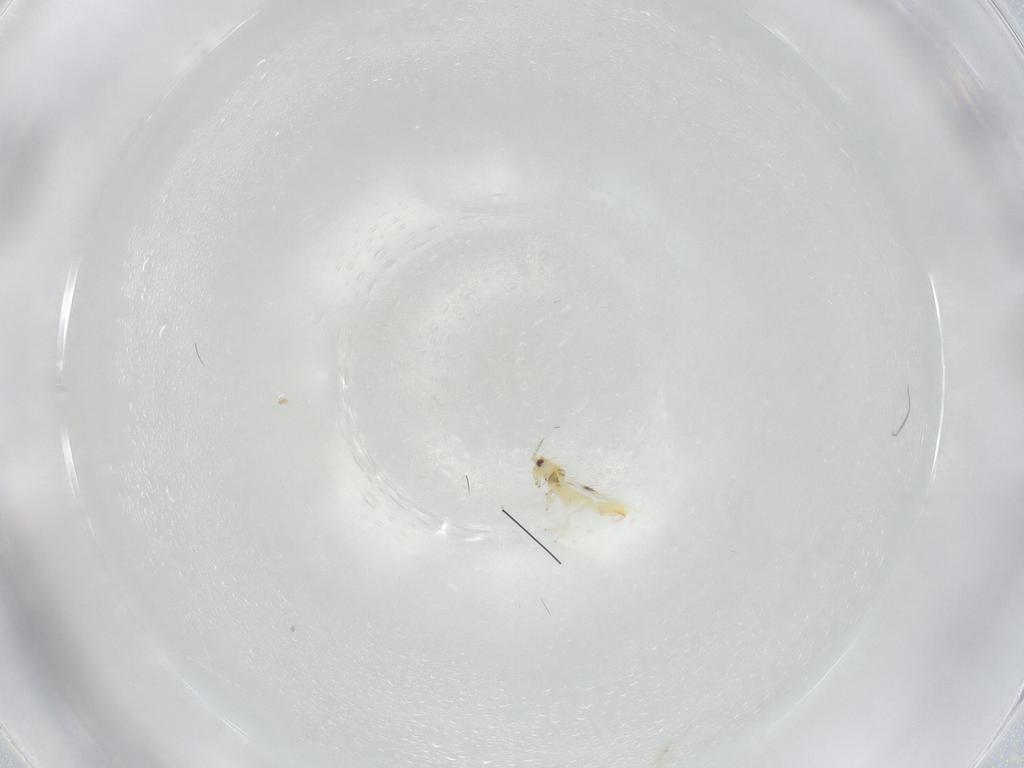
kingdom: Animalia
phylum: Arthropoda
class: Insecta
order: Thysanoptera
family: Thripidae
